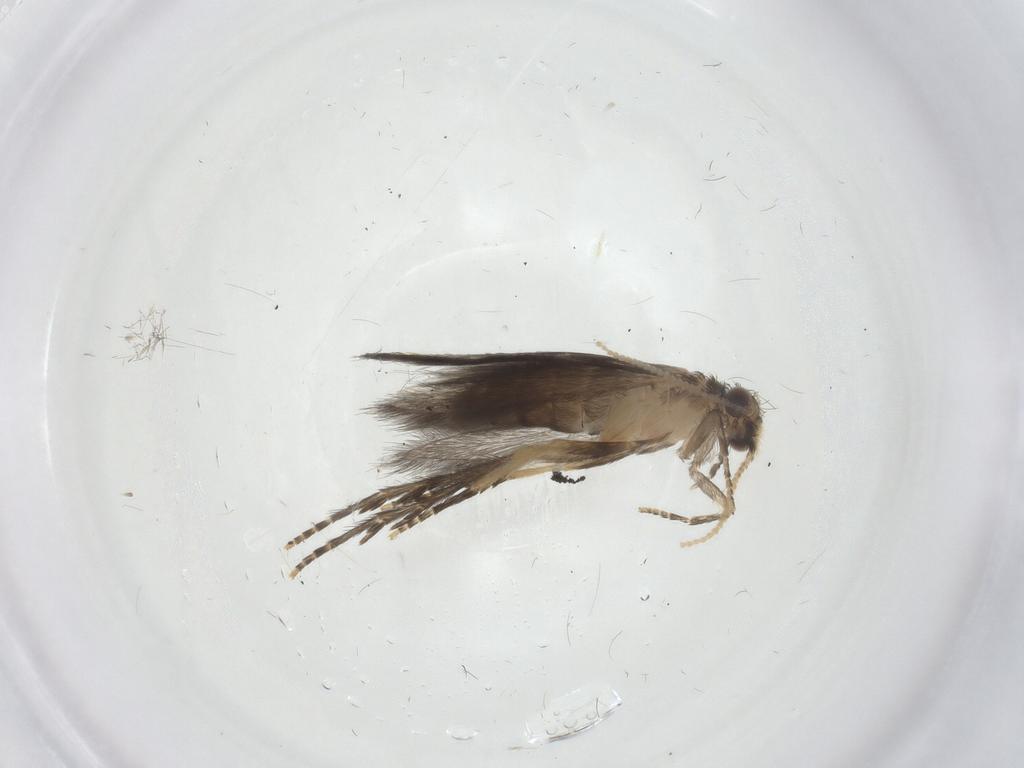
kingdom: Animalia
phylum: Arthropoda
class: Insecta
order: Trichoptera
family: Hydroptilidae
